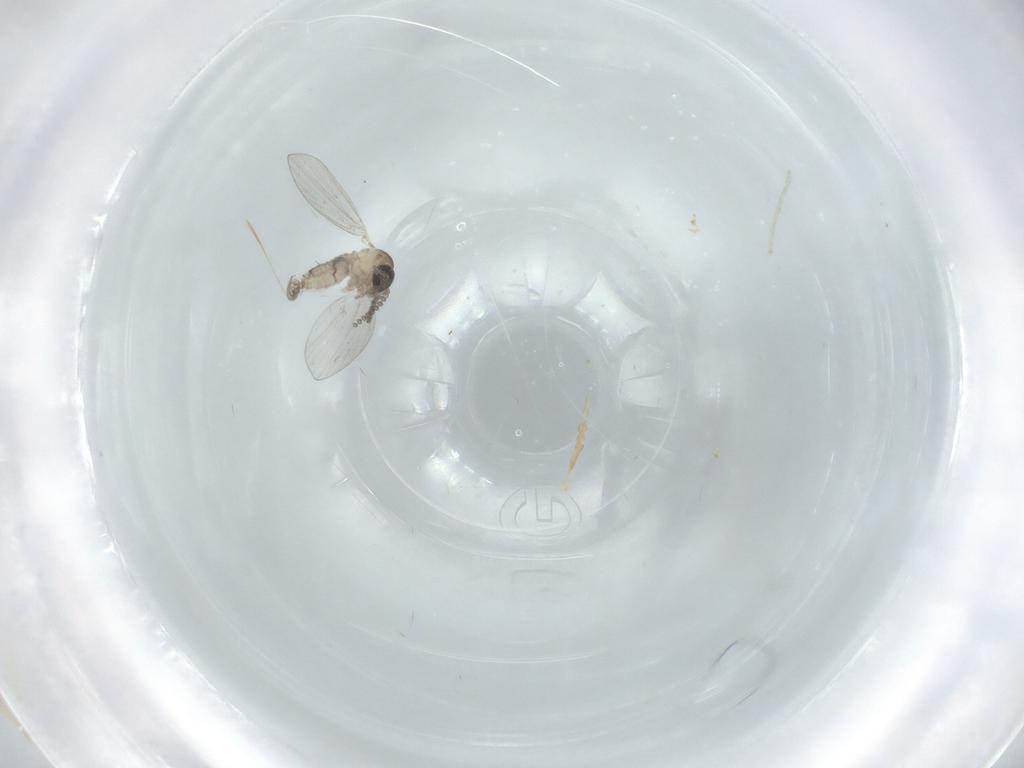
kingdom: Animalia
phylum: Arthropoda
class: Insecta
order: Diptera
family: Psychodidae
